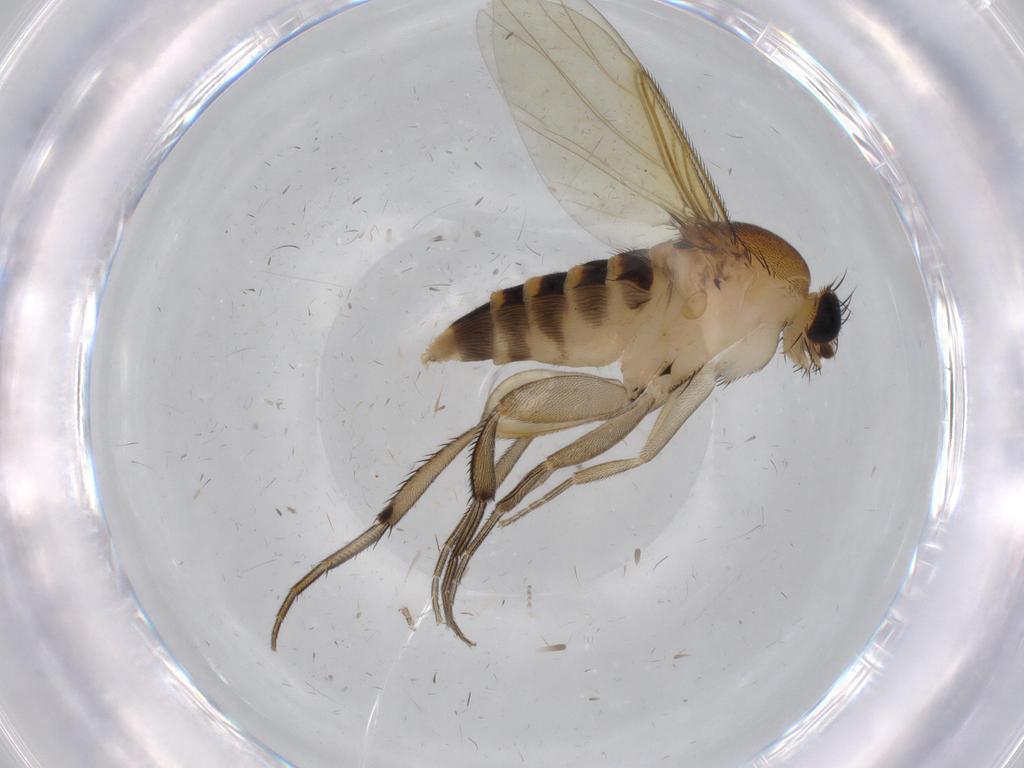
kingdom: Animalia
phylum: Arthropoda
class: Insecta
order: Diptera
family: Phoridae
